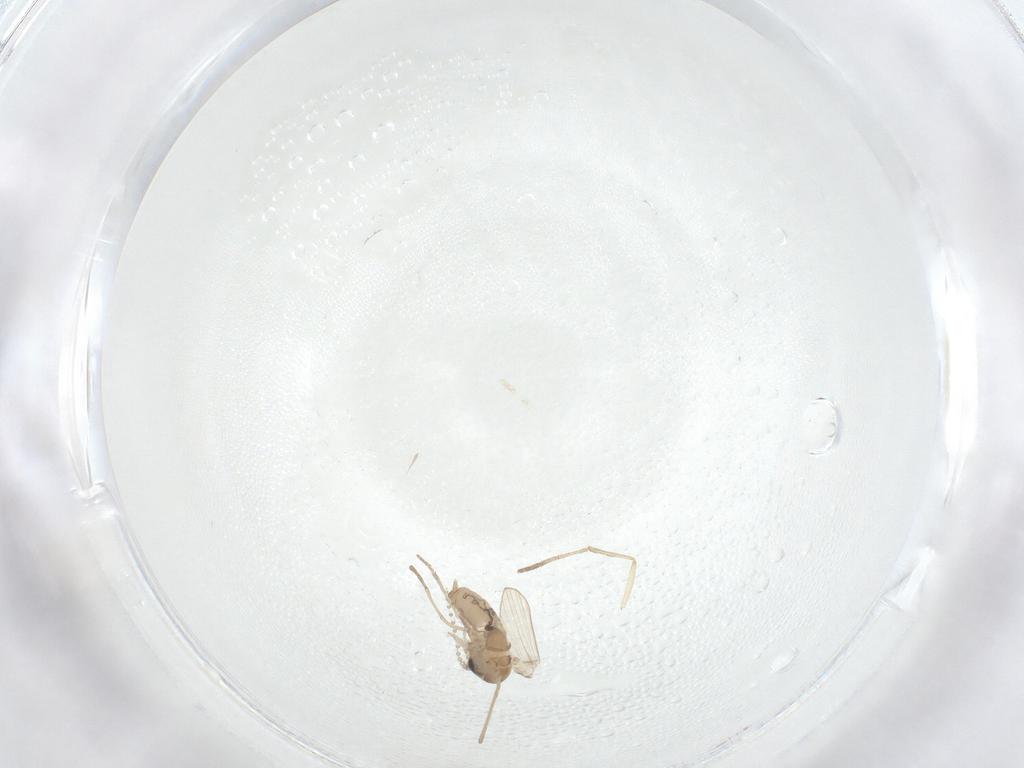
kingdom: Animalia
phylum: Arthropoda
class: Insecta
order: Diptera
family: Psychodidae
